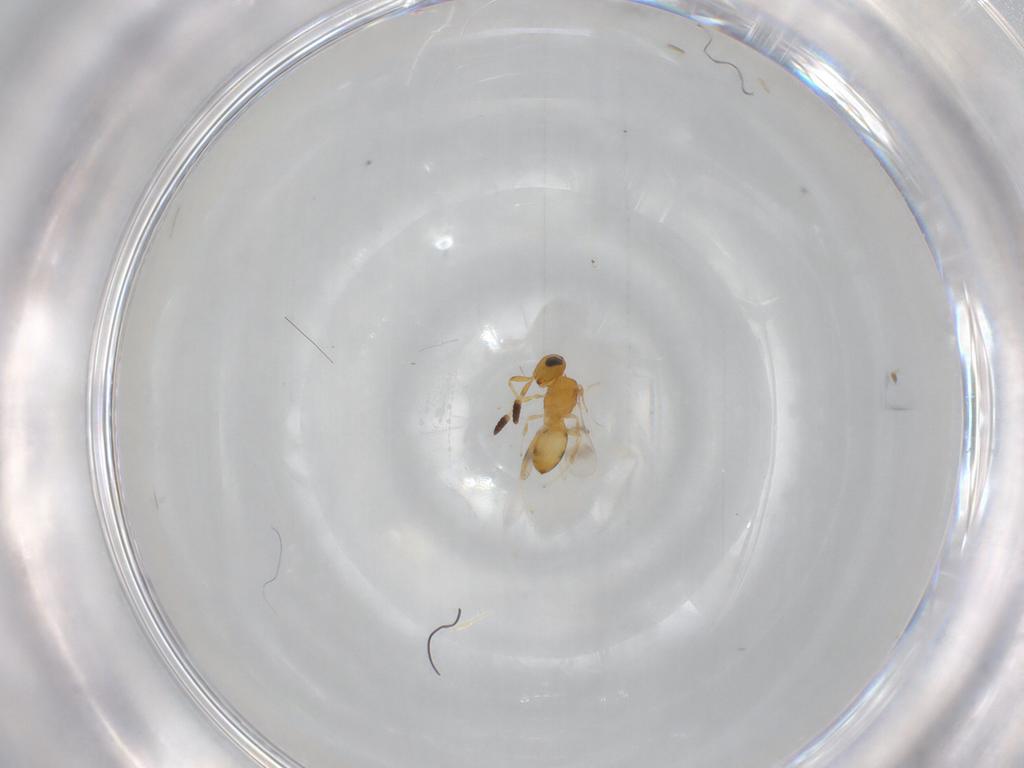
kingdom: Animalia
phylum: Arthropoda
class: Insecta
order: Hymenoptera
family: Scelionidae
